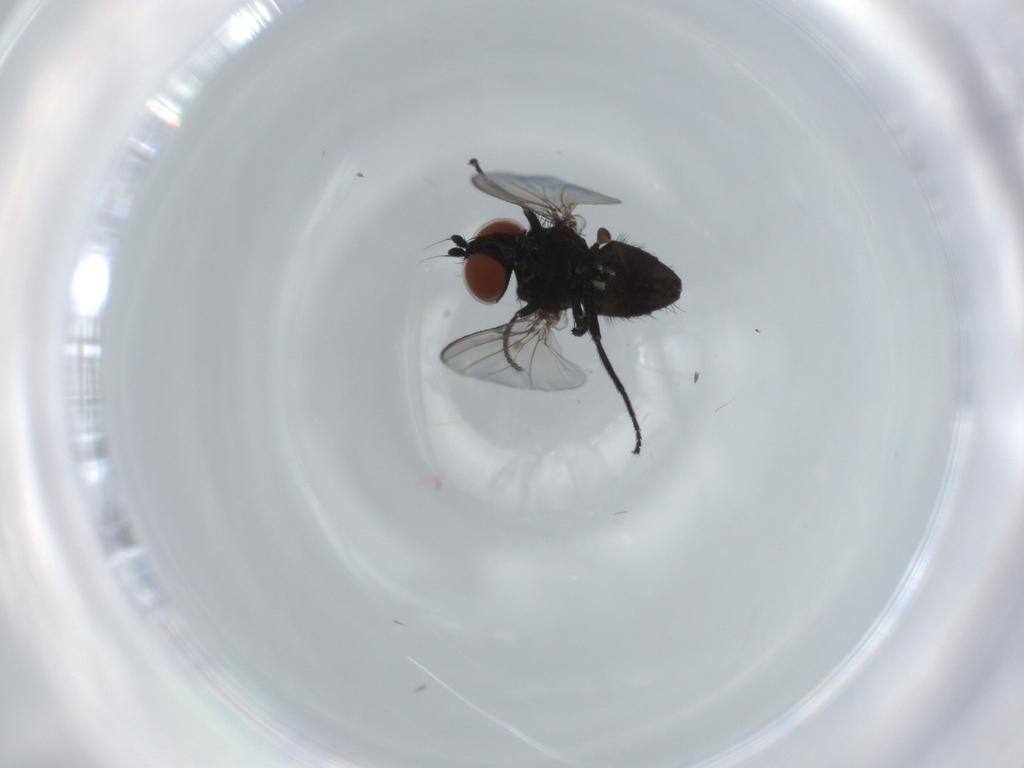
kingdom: Animalia
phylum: Arthropoda
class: Insecta
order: Diptera
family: Milichiidae
